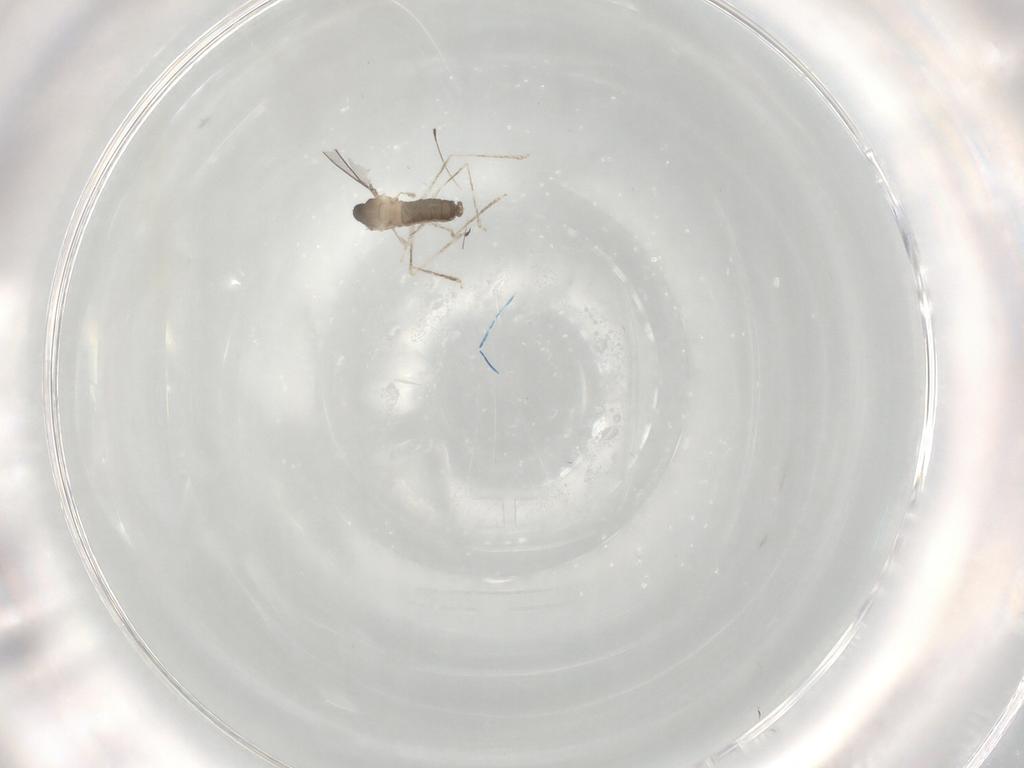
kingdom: Animalia
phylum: Arthropoda
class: Insecta
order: Diptera
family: Cecidomyiidae
